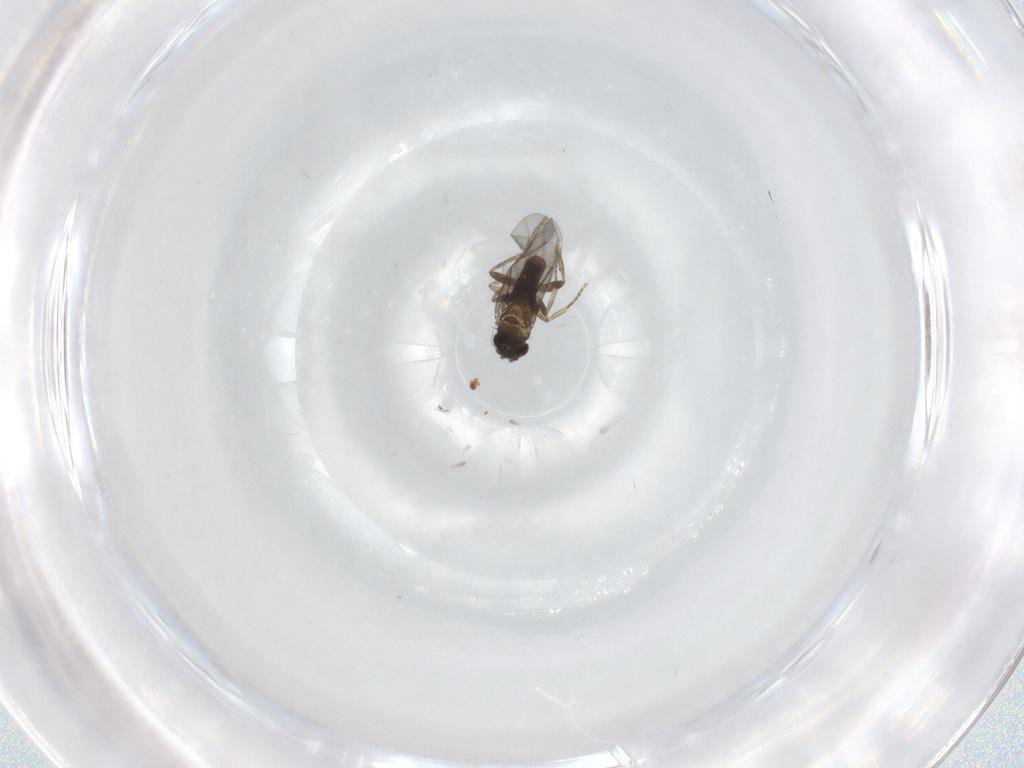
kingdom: Animalia
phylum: Arthropoda
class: Insecta
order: Diptera
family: Sciaridae
